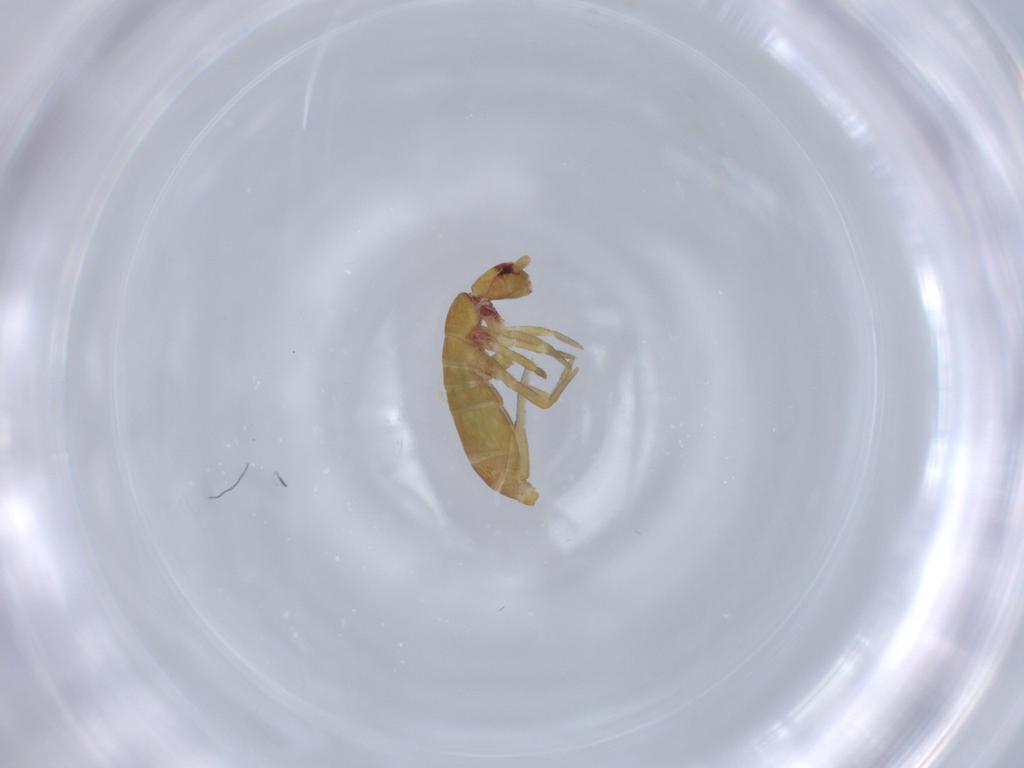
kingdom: Animalia
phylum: Arthropoda
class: Collembola
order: Entomobryomorpha
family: Tomoceridae
